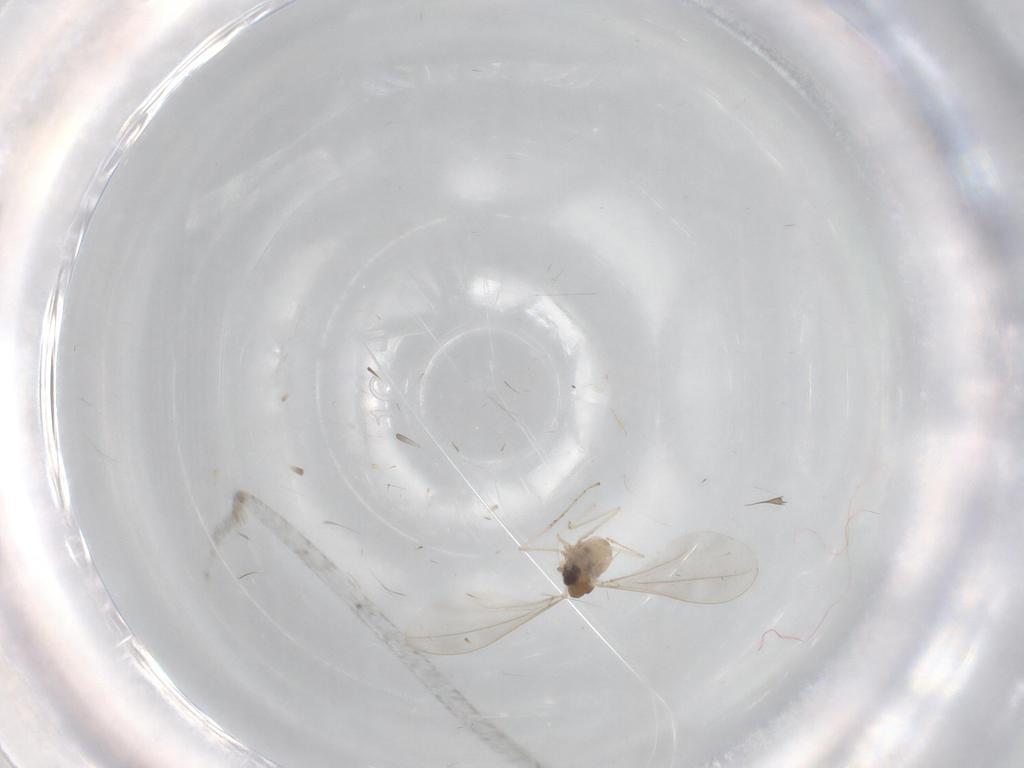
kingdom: Animalia
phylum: Arthropoda
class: Insecta
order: Diptera
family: Cecidomyiidae
